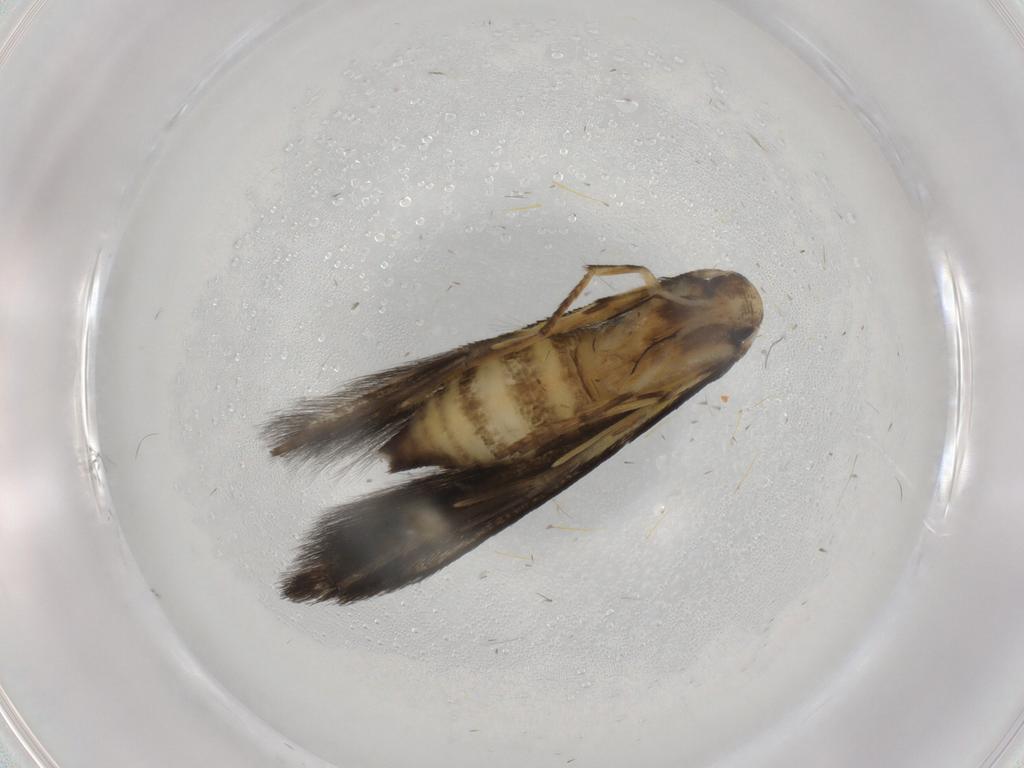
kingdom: Animalia
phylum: Arthropoda
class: Insecta
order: Lepidoptera
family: Stathmopodidae
